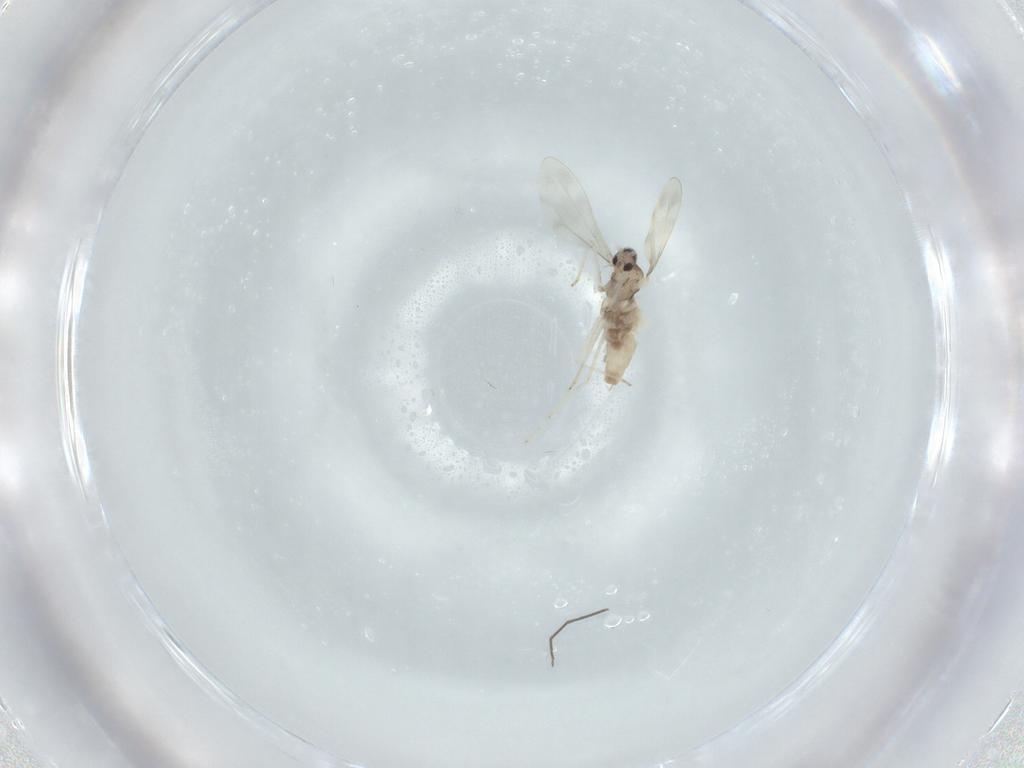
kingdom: Animalia
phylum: Arthropoda
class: Insecta
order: Diptera
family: Cecidomyiidae
